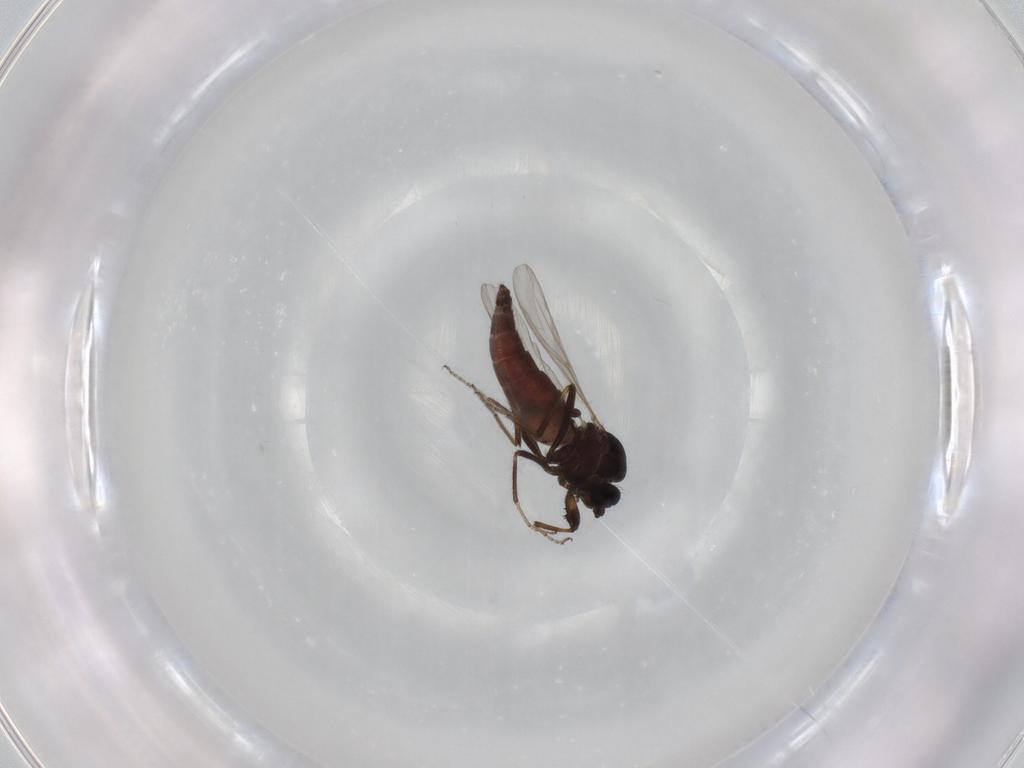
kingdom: Animalia
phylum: Arthropoda
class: Insecta
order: Diptera
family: Ceratopogonidae
